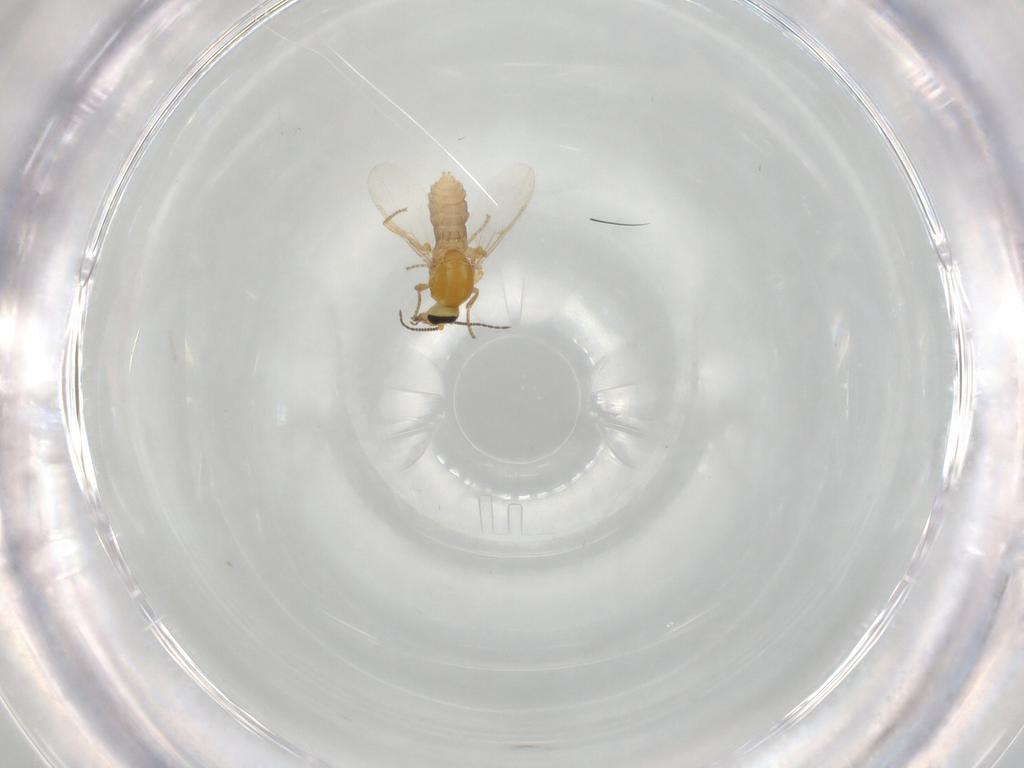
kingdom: Animalia
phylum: Arthropoda
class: Insecta
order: Diptera
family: Ceratopogonidae
